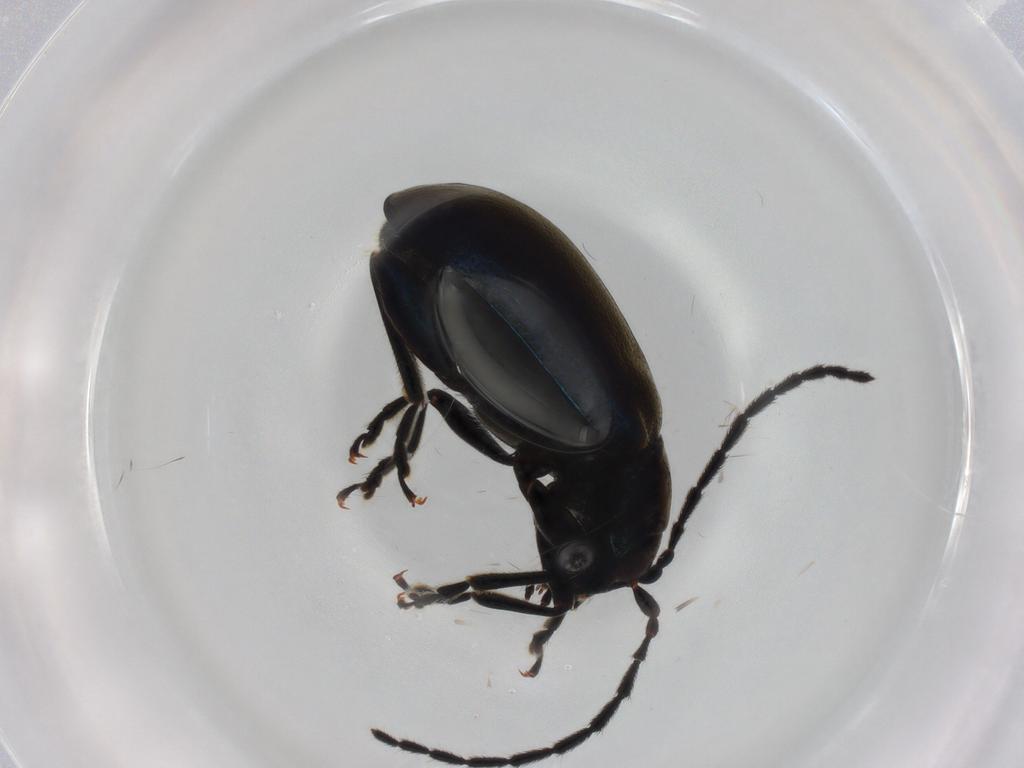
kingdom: Animalia
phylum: Arthropoda
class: Insecta
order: Coleoptera
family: Chrysomelidae
